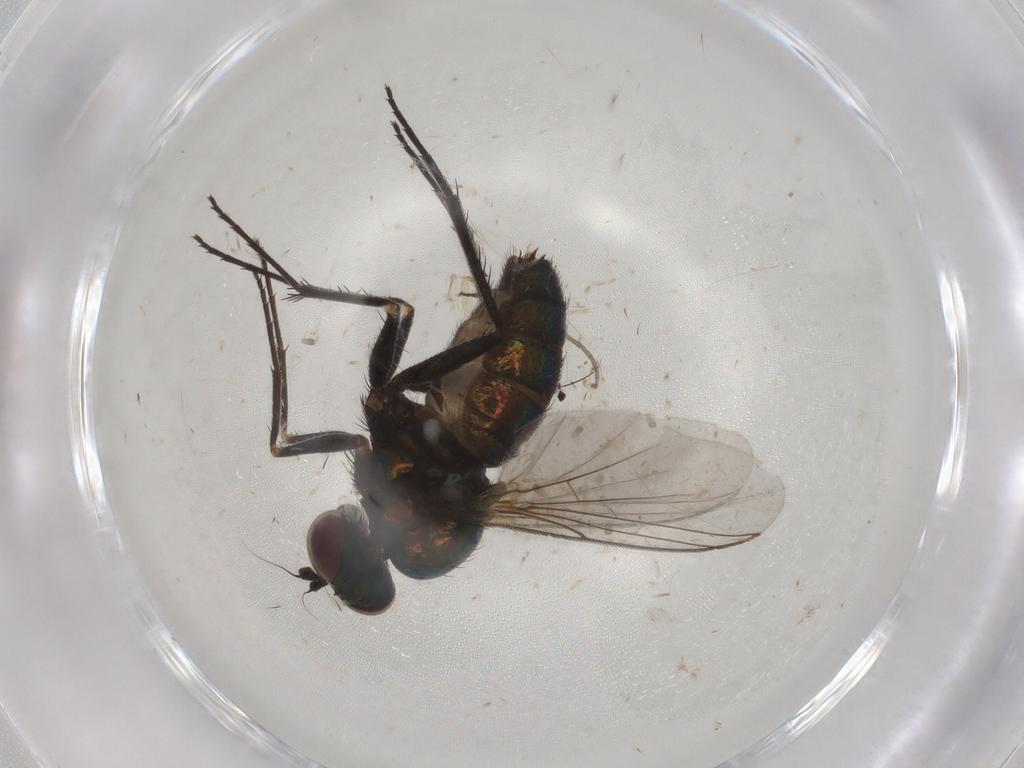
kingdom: Animalia
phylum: Arthropoda
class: Insecta
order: Diptera
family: Dolichopodidae
